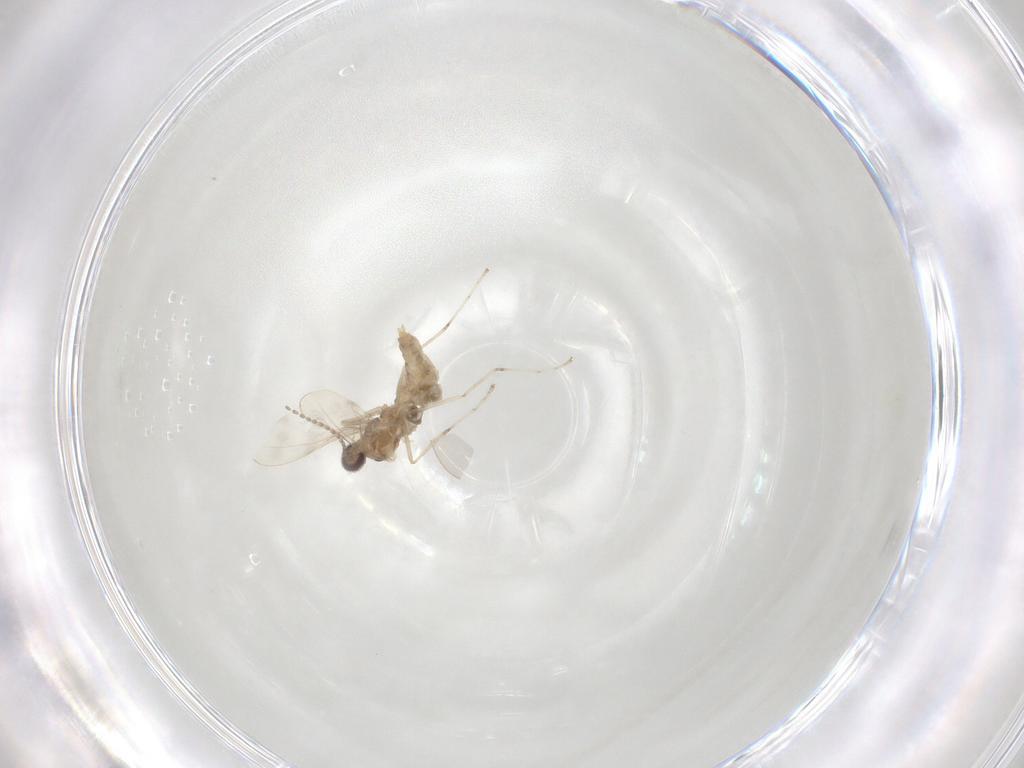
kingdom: Animalia
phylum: Arthropoda
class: Insecta
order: Diptera
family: Cecidomyiidae
